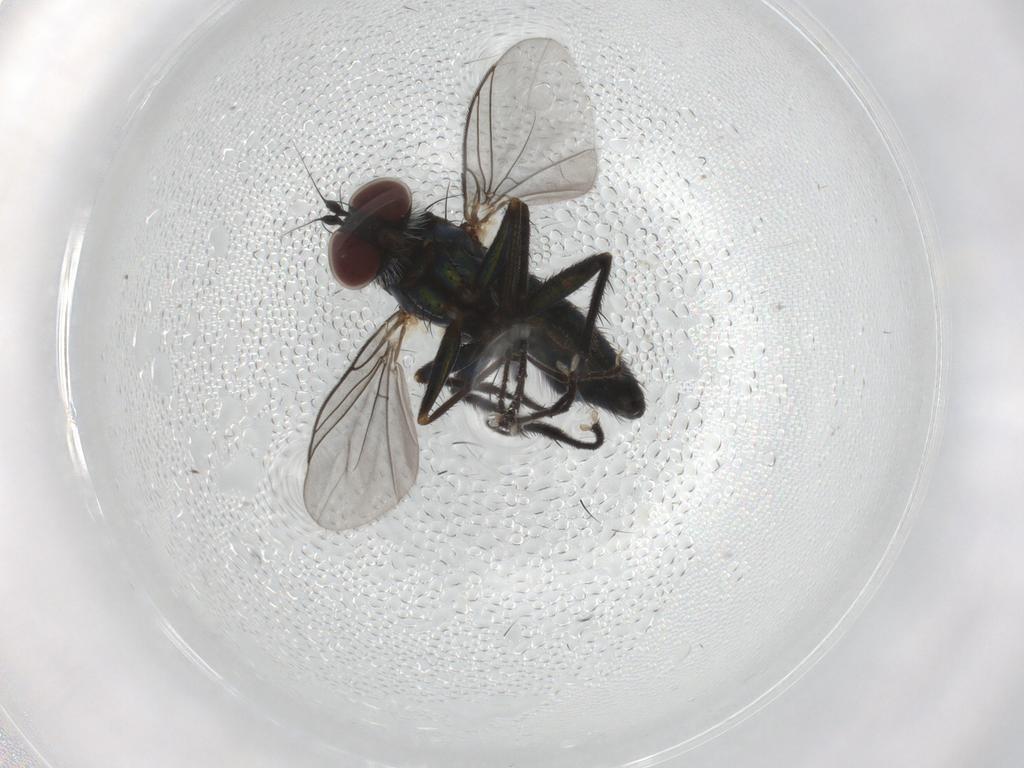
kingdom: Animalia
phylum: Arthropoda
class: Insecta
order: Diptera
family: Dolichopodidae
